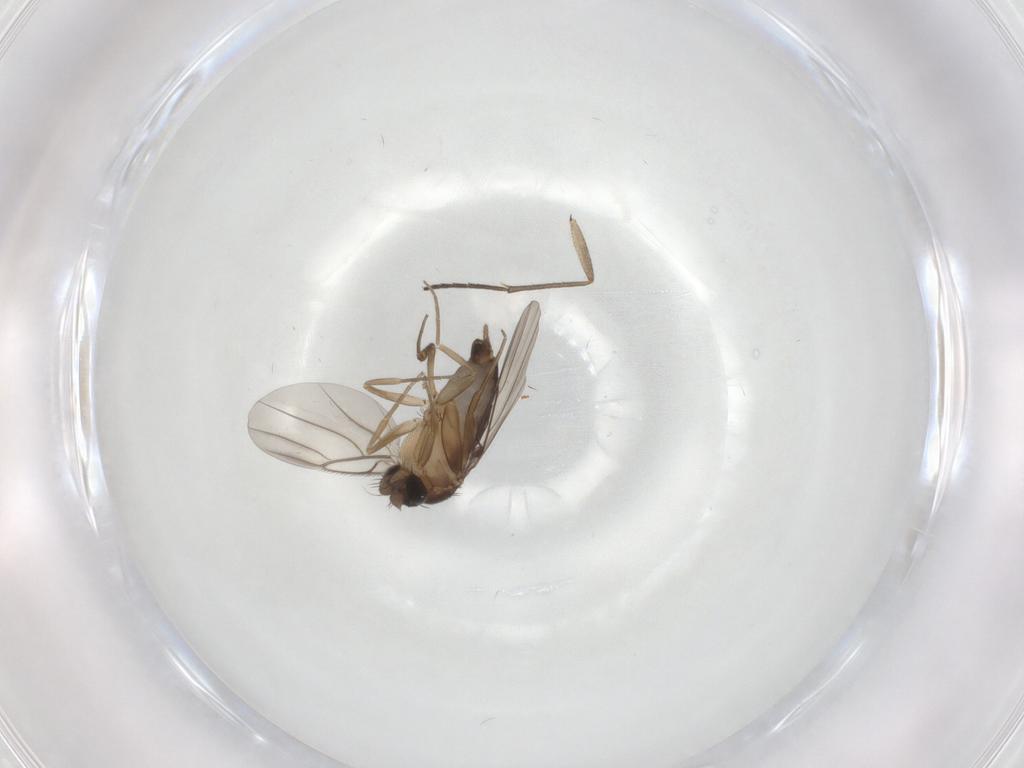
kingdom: Animalia
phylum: Arthropoda
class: Insecta
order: Diptera
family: Phoridae
